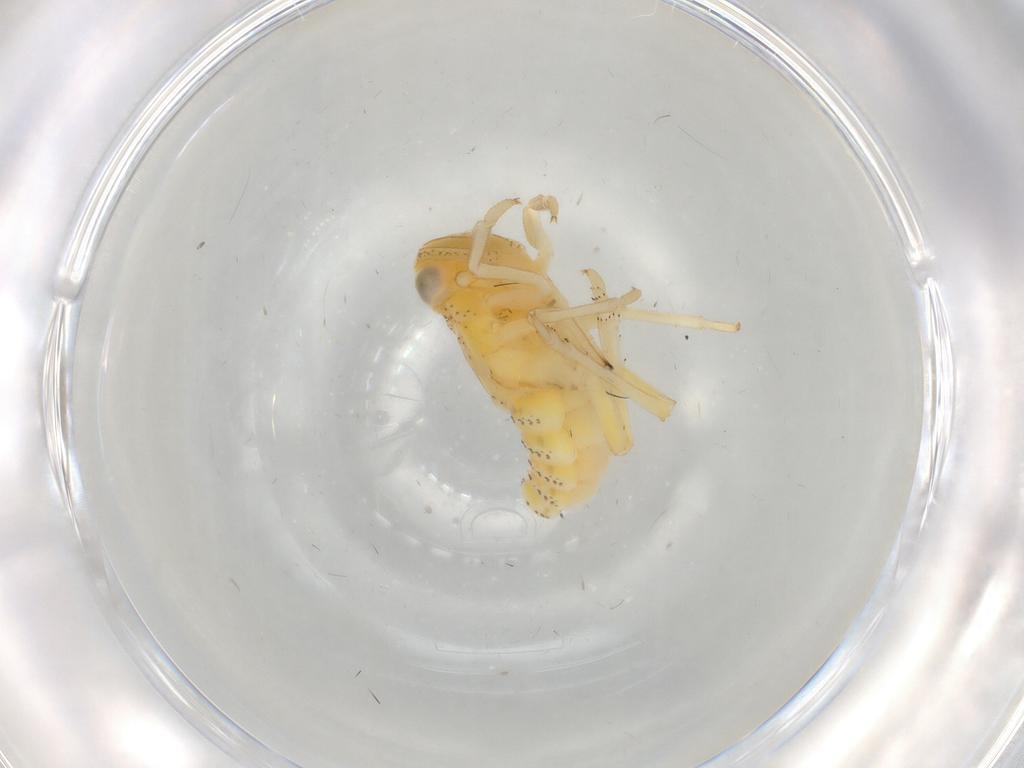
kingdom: Animalia
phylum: Arthropoda
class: Insecta
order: Hemiptera
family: Tropiduchidae
